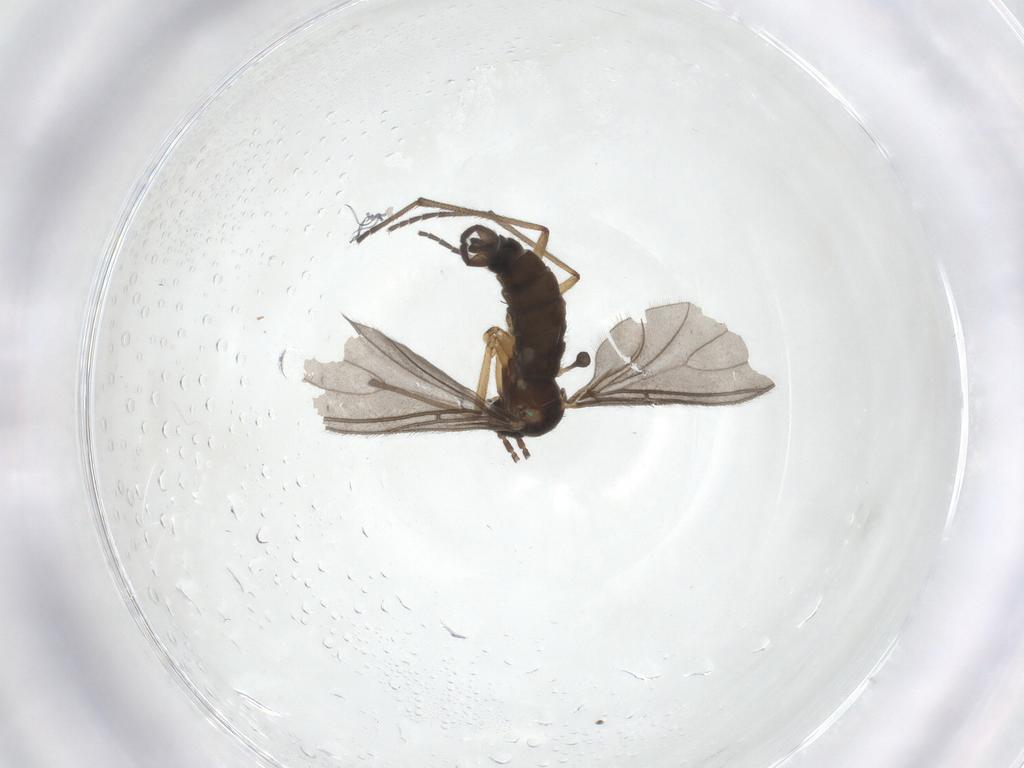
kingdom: Animalia
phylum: Arthropoda
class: Insecta
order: Diptera
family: Sciaridae
